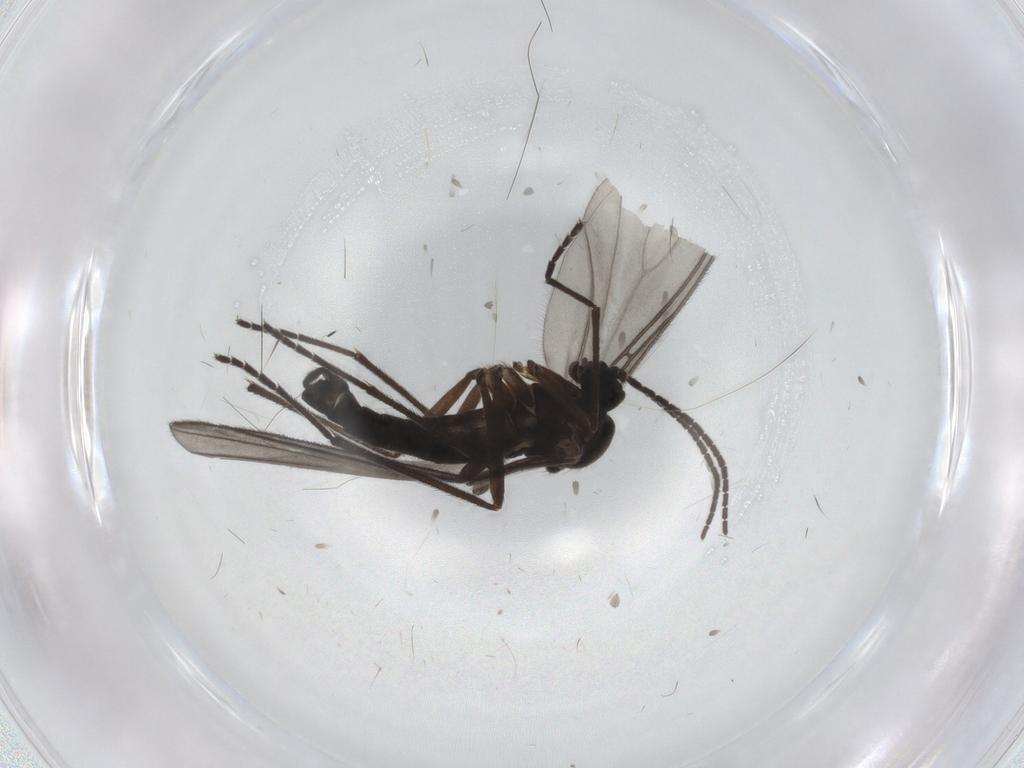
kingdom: Animalia
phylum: Arthropoda
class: Insecta
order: Diptera
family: Sciaridae
